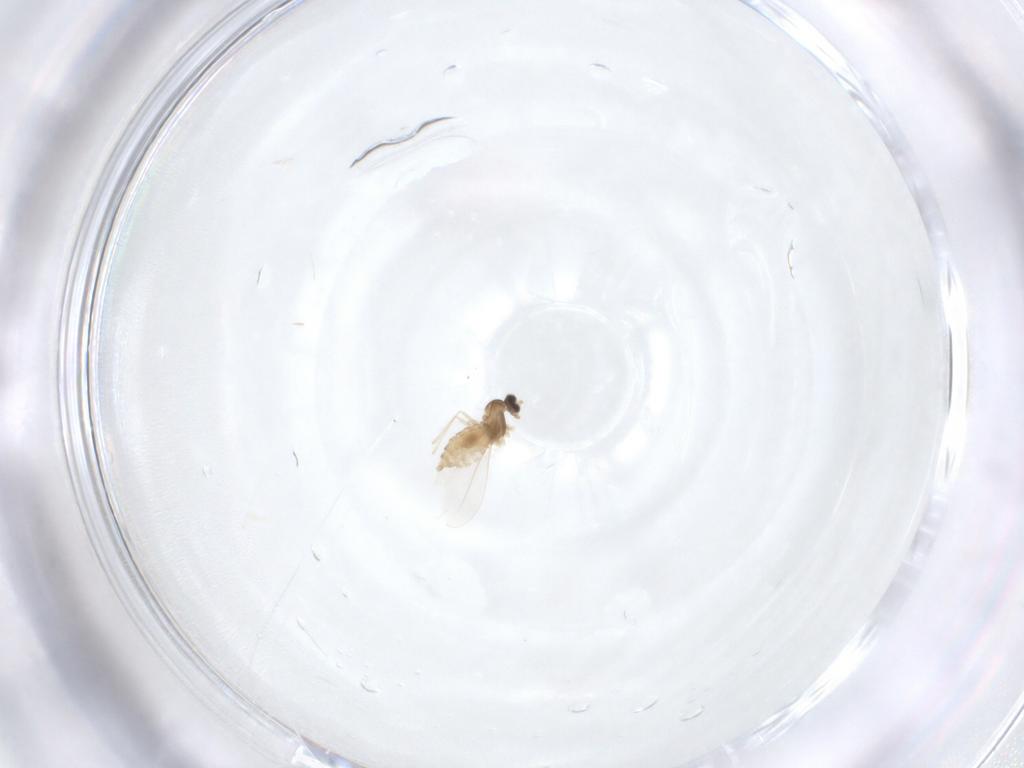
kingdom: Animalia
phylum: Arthropoda
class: Insecta
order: Diptera
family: Cecidomyiidae
